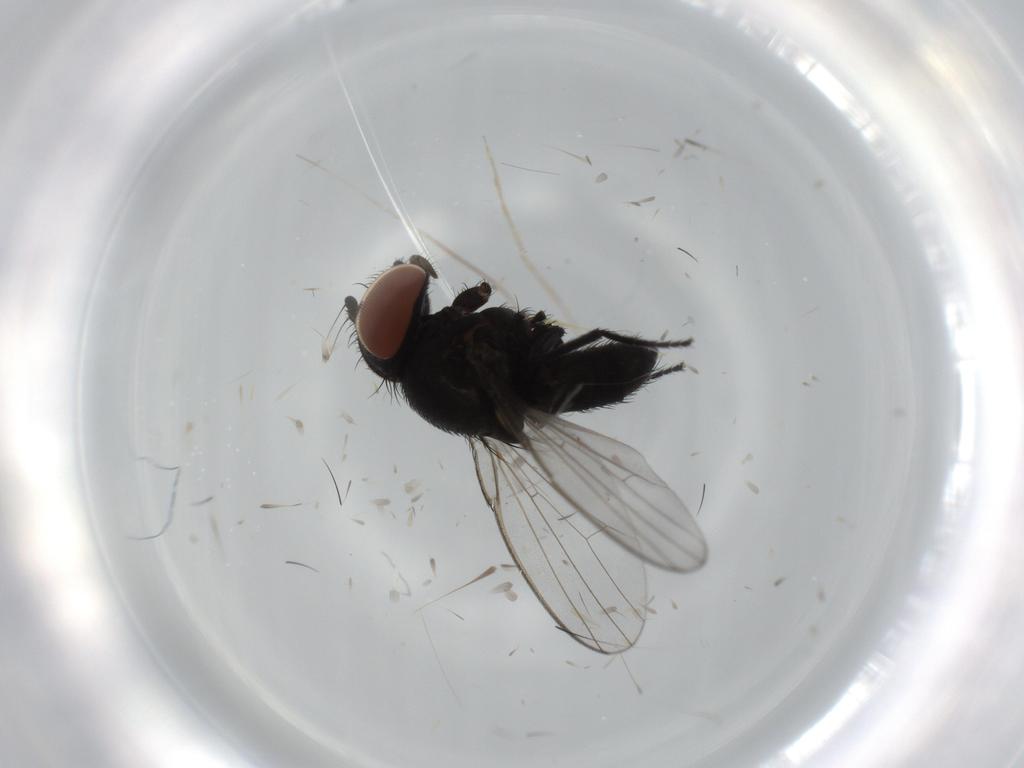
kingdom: Animalia
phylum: Arthropoda
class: Insecta
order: Diptera
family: Milichiidae
